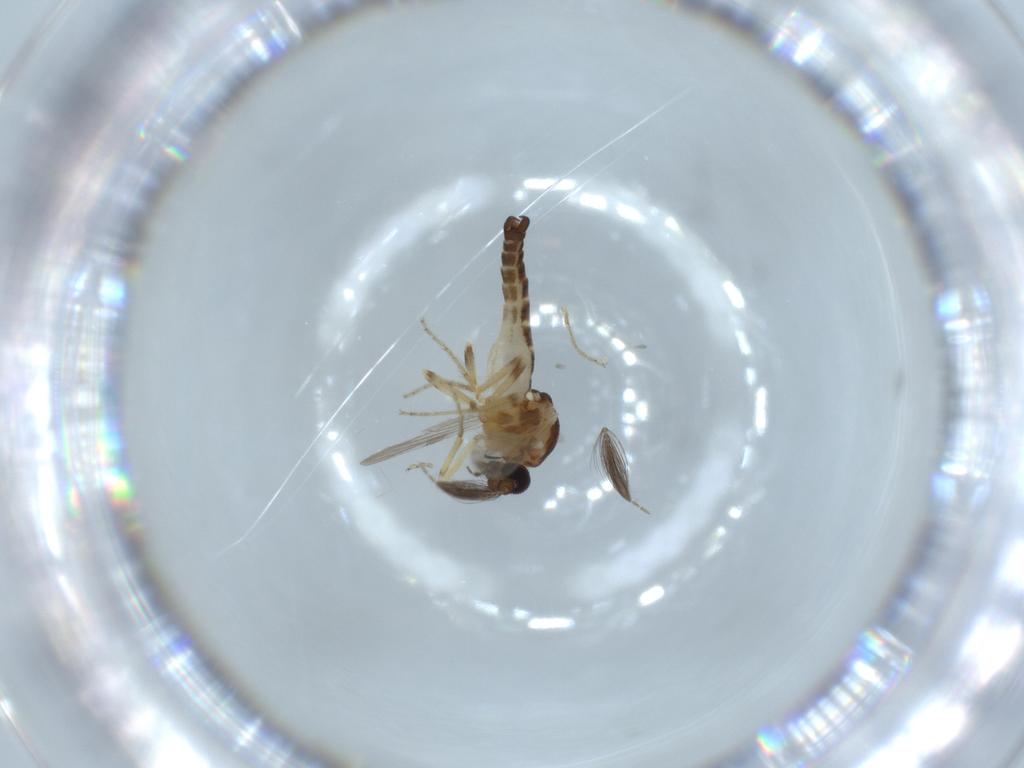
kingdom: Animalia
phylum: Arthropoda
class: Insecta
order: Diptera
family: Ceratopogonidae
